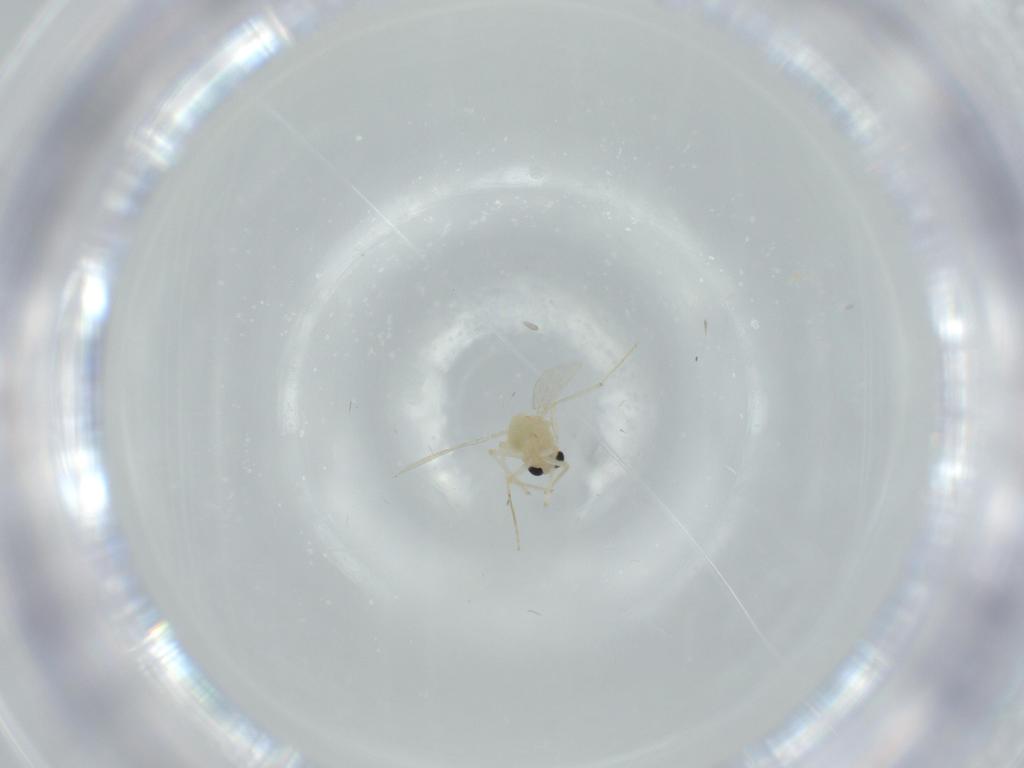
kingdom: Animalia
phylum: Arthropoda
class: Insecta
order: Diptera
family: Chironomidae
